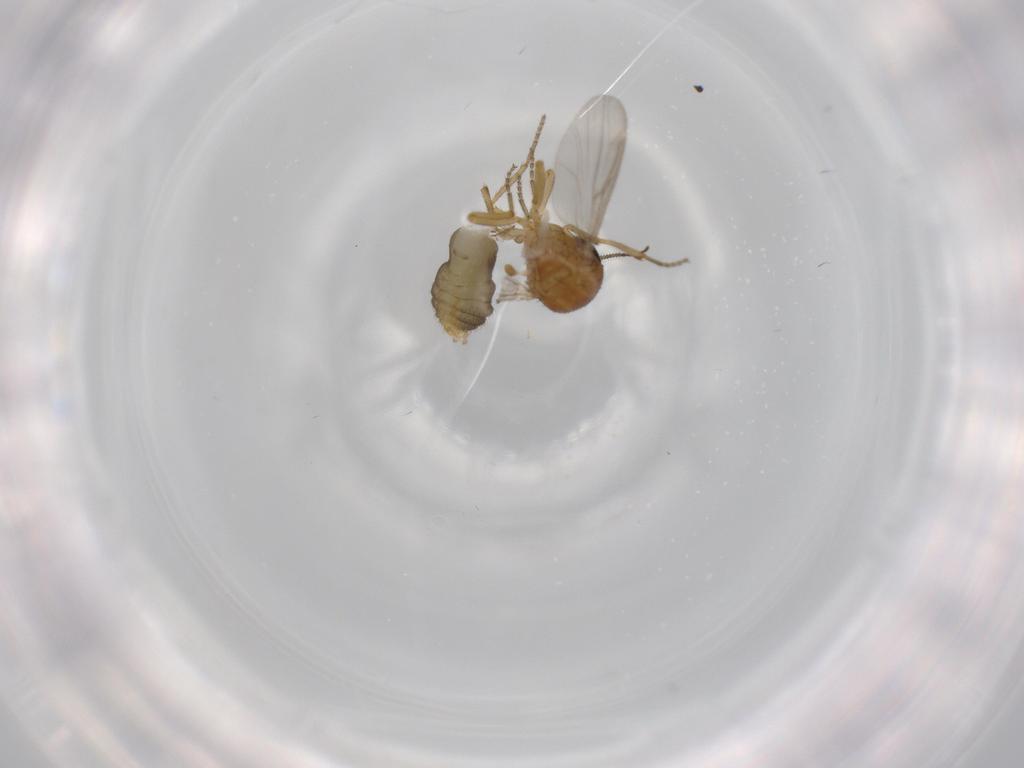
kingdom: Animalia
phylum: Arthropoda
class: Insecta
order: Diptera
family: Ceratopogonidae
